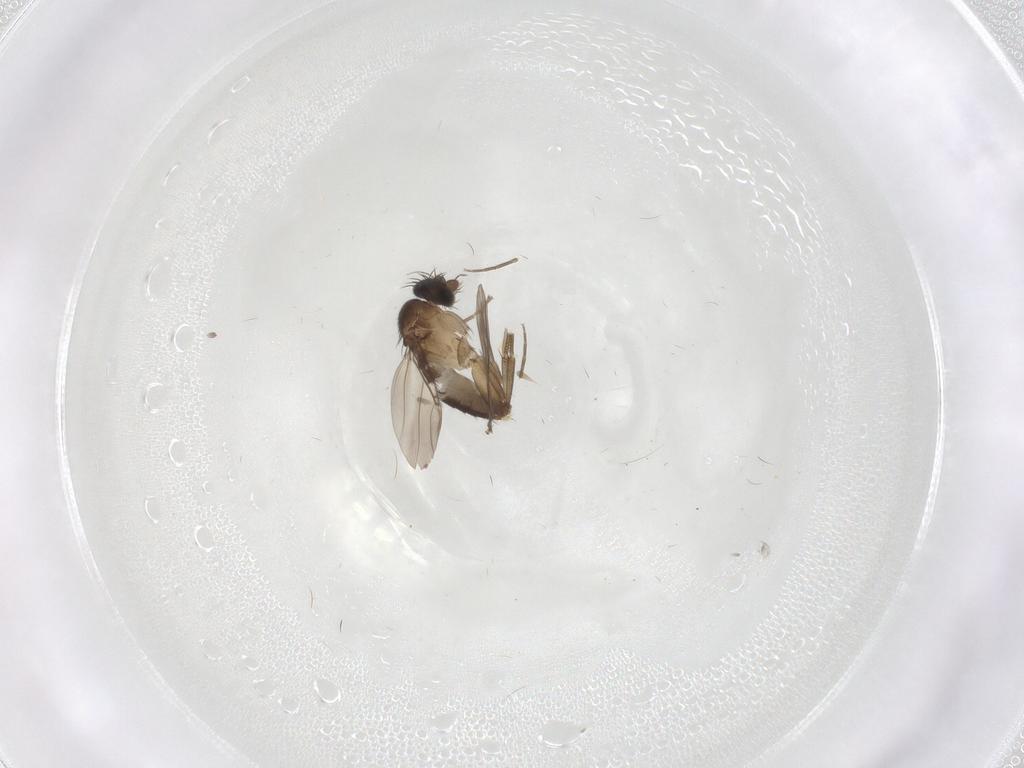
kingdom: Animalia
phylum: Arthropoda
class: Insecta
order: Diptera
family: Phoridae
